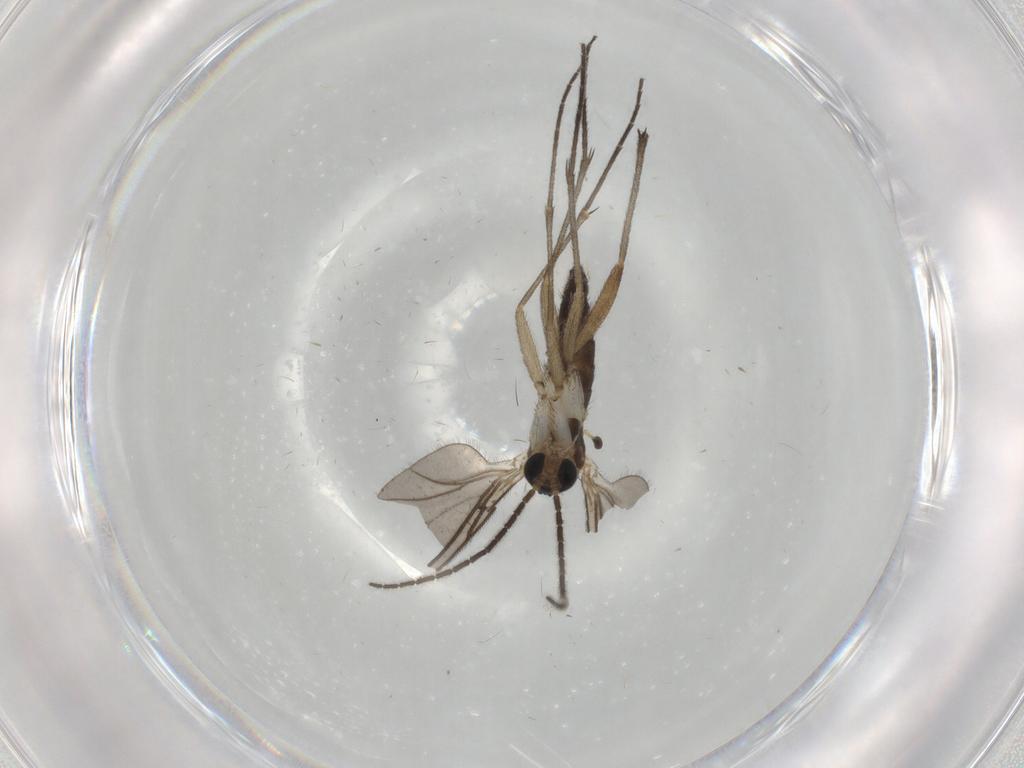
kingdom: Animalia
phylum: Arthropoda
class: Insecta
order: Diptera
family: Sciaridae
